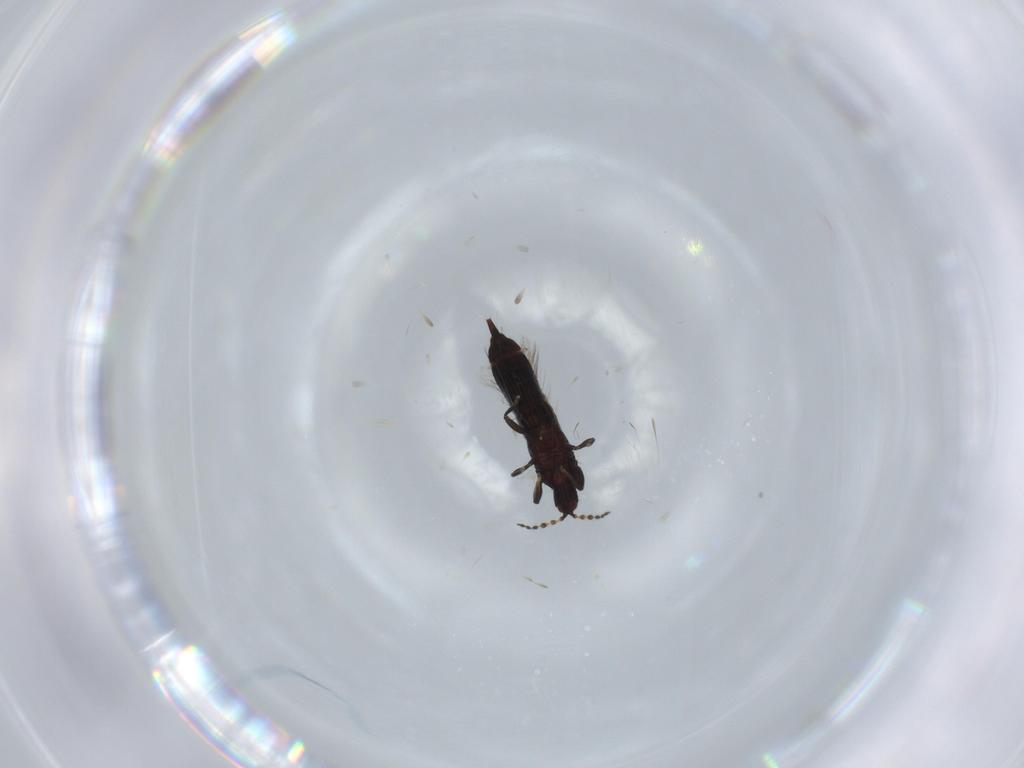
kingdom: Animalia
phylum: Arthropoda
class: Insecta
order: Thysanoptera
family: Phlaeothripidae
